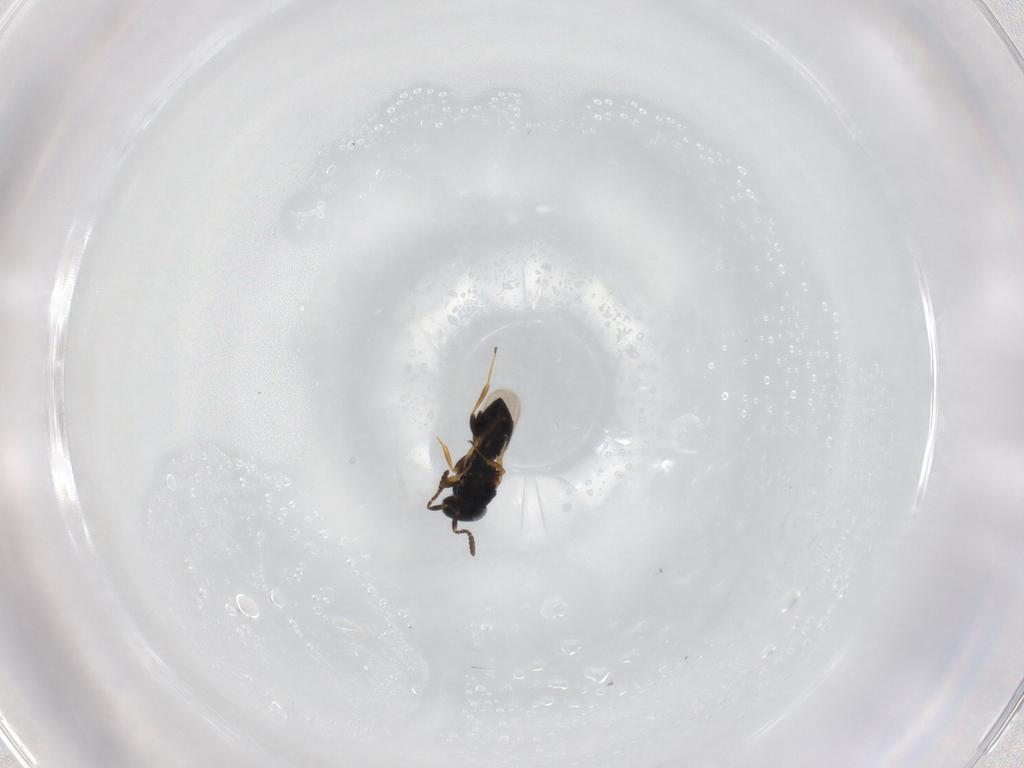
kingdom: Animalia
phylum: Arthropoda
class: Insecta
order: Hymenoptera
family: Scelionidae
